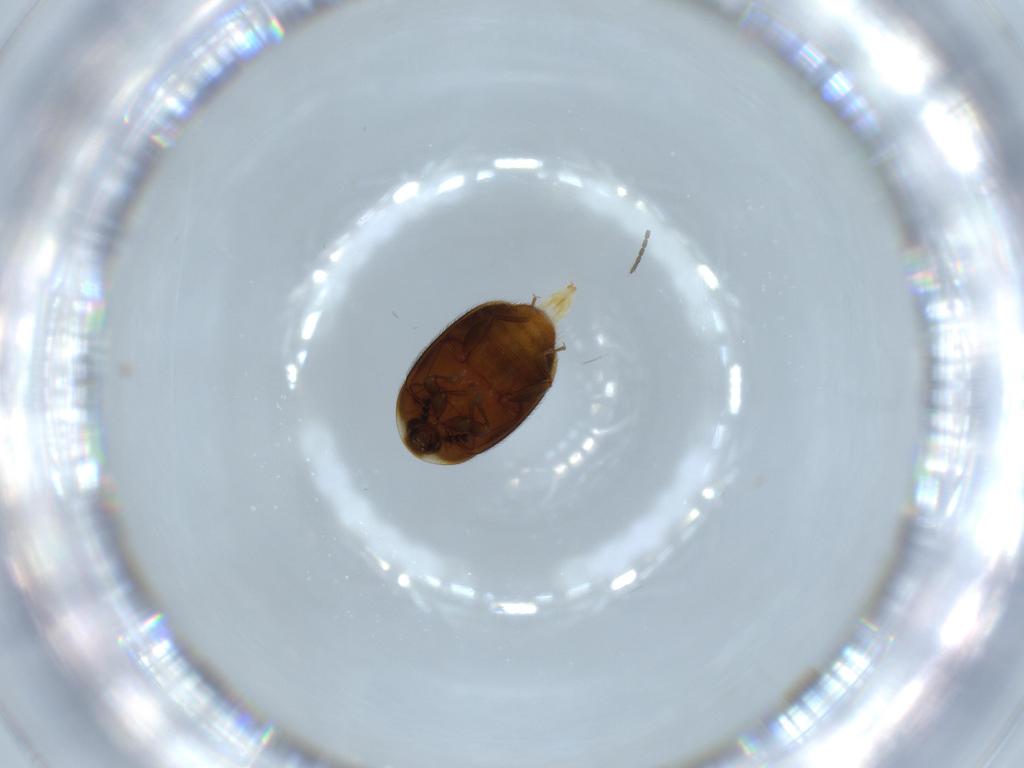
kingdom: Animalia
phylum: Arthropoda
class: Insecta
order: Coleoptera
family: Corylophidae
